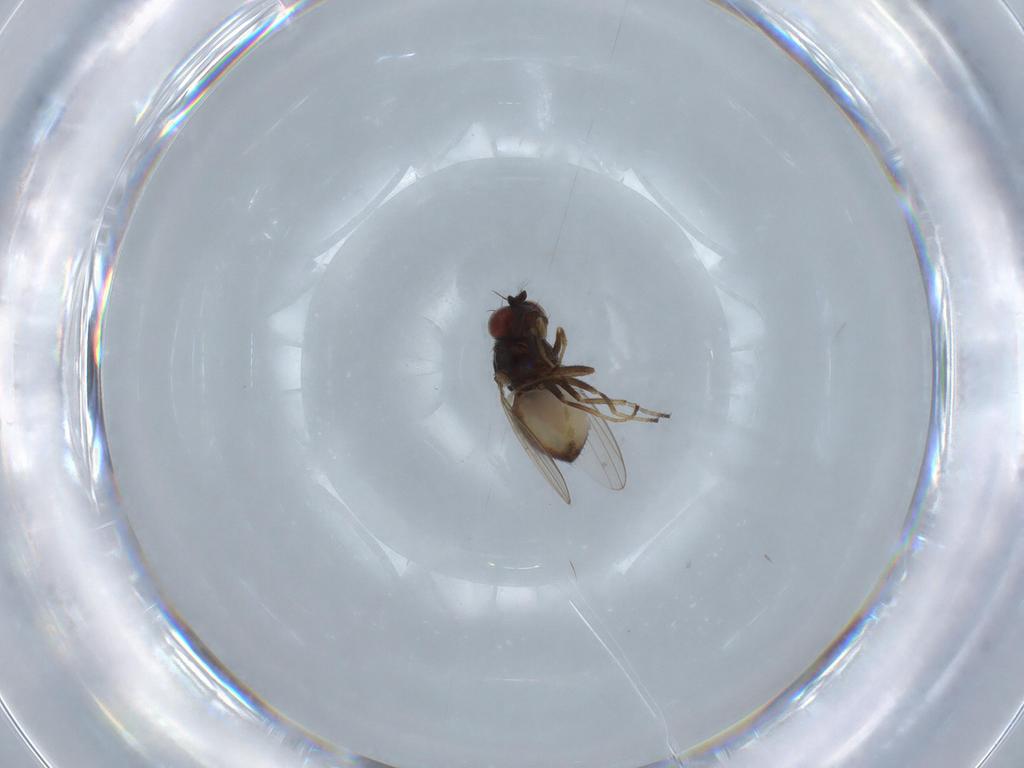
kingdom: Animalia
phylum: Arthropoda
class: Insecta
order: Diptera
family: Ephydridae
